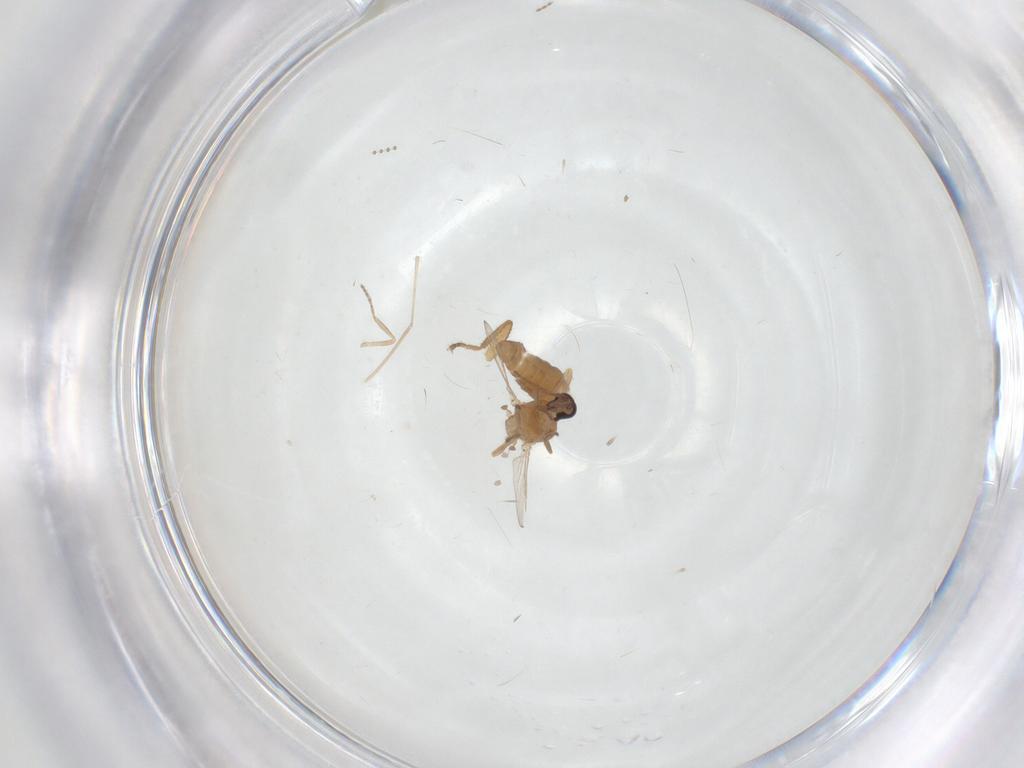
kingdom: Animalia
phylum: Arthropoda
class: Insecta
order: Diptera
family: Ceratopogonidae
